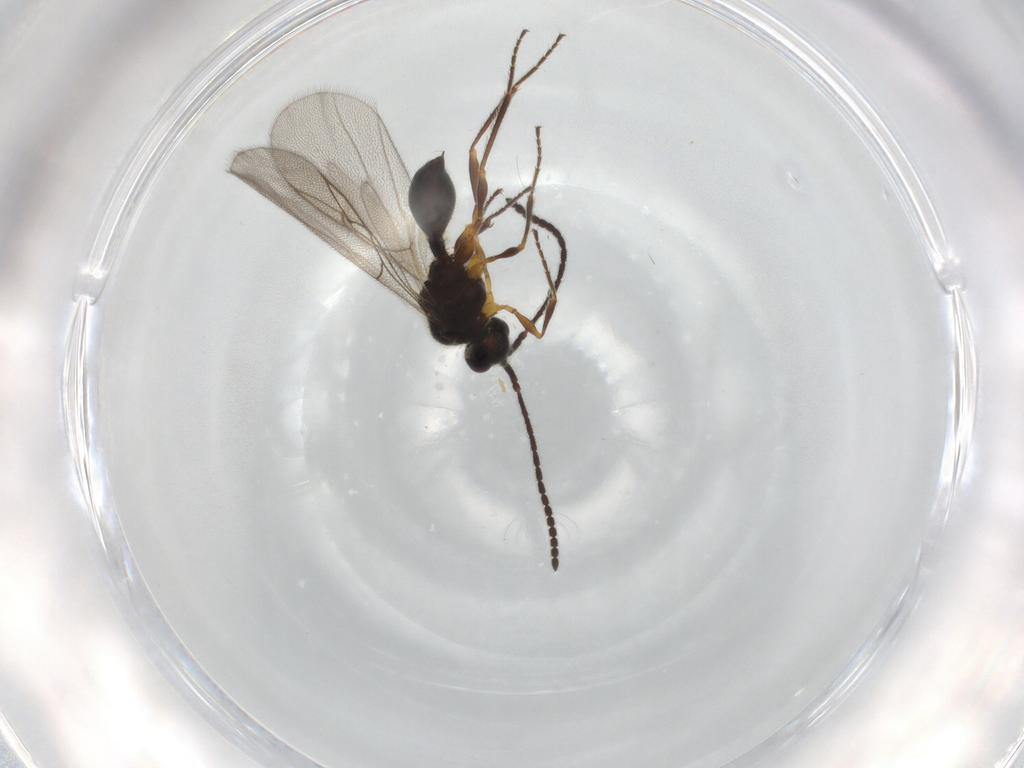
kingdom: Animalia
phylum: Arthropoda
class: Insecta
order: Hymenoptera
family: Diapriidae
